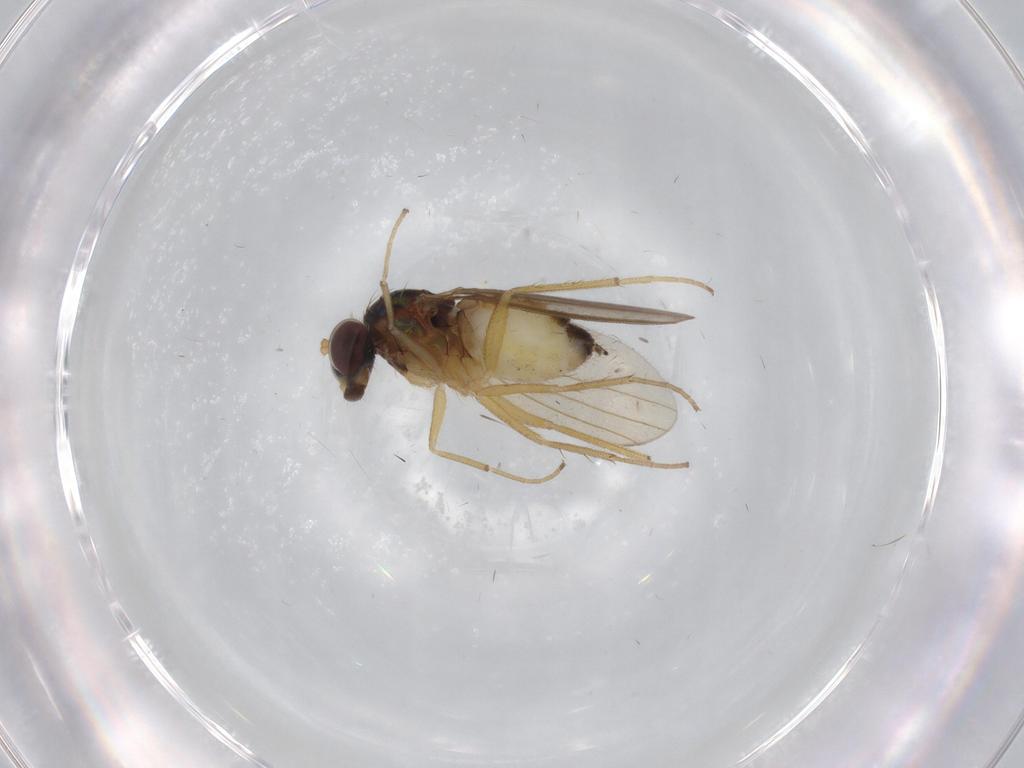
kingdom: Animalia
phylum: Arthropoda
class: Insecta
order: Diptera
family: Dolichopodidae
